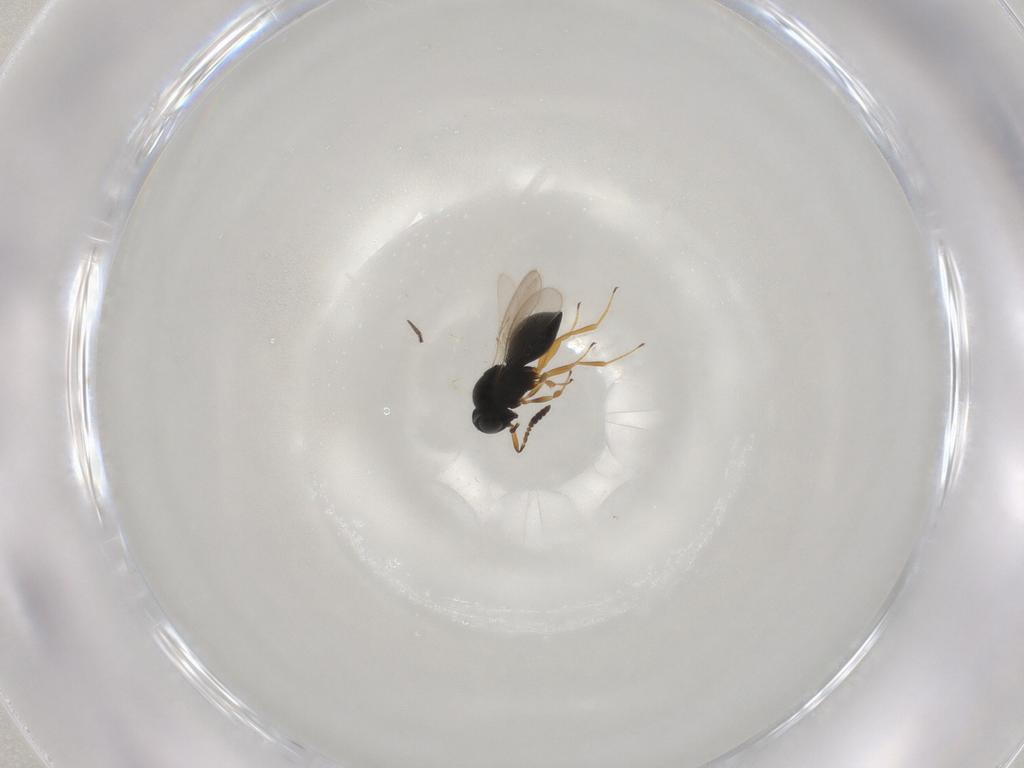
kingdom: Animalia
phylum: Arthropoda
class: Insecta
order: Hymenoptera
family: Scelionidae
